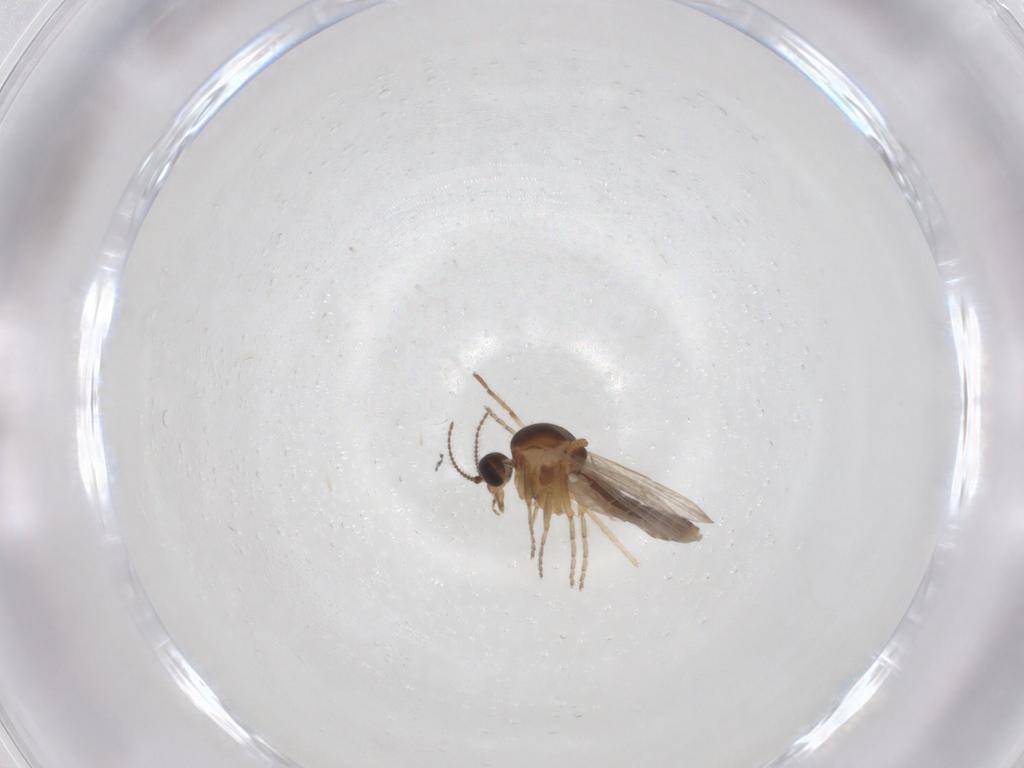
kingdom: Animalia
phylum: Arthropoda
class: Insecta
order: Diptera
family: Chironomidae
